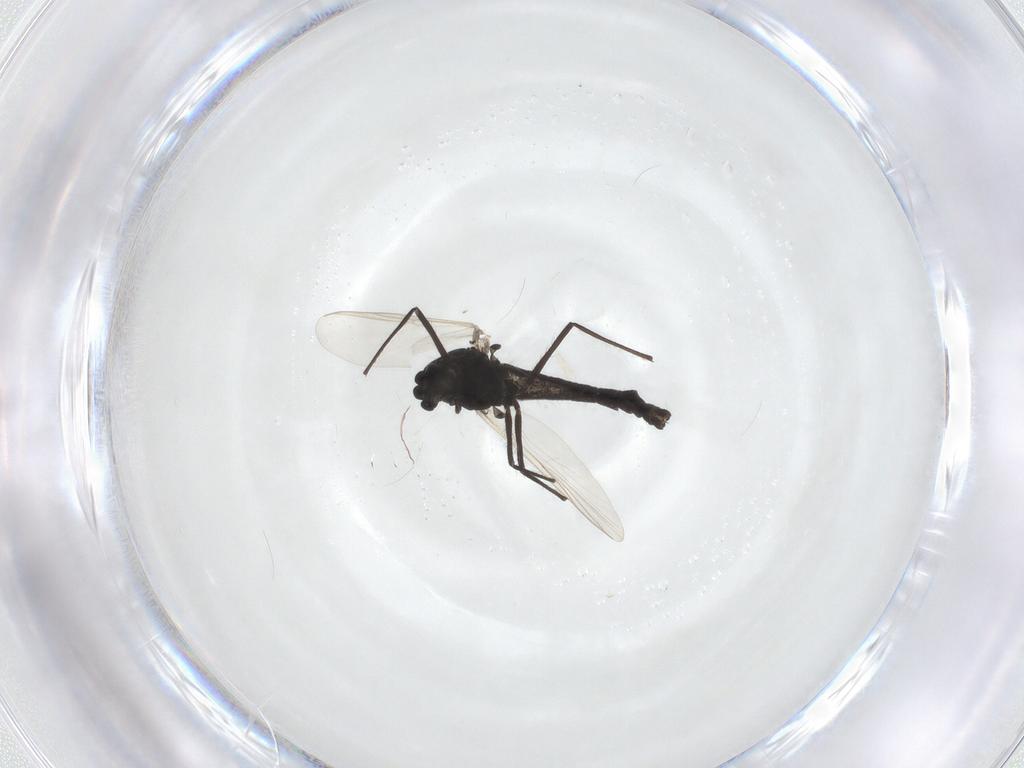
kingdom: Animalia
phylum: Arthropoda
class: Insecta
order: Diptera
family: Chironomidae
